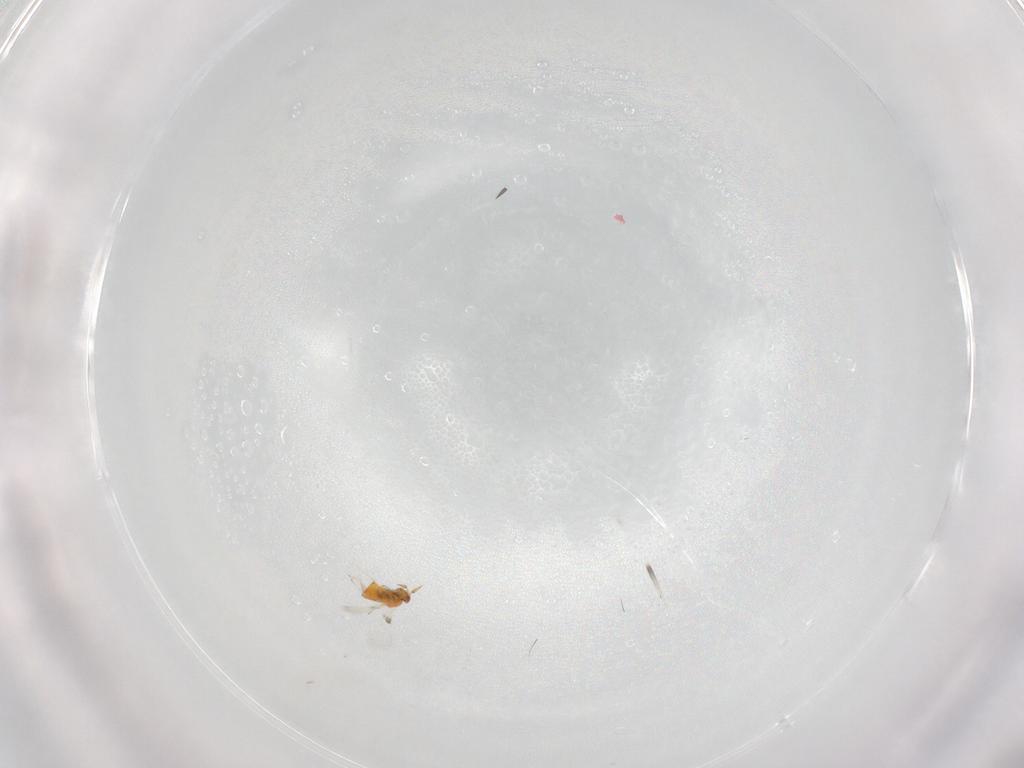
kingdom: Animalia
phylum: Arthropoda
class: Insecta
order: Hymenoptera
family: Trichogrammatidae
